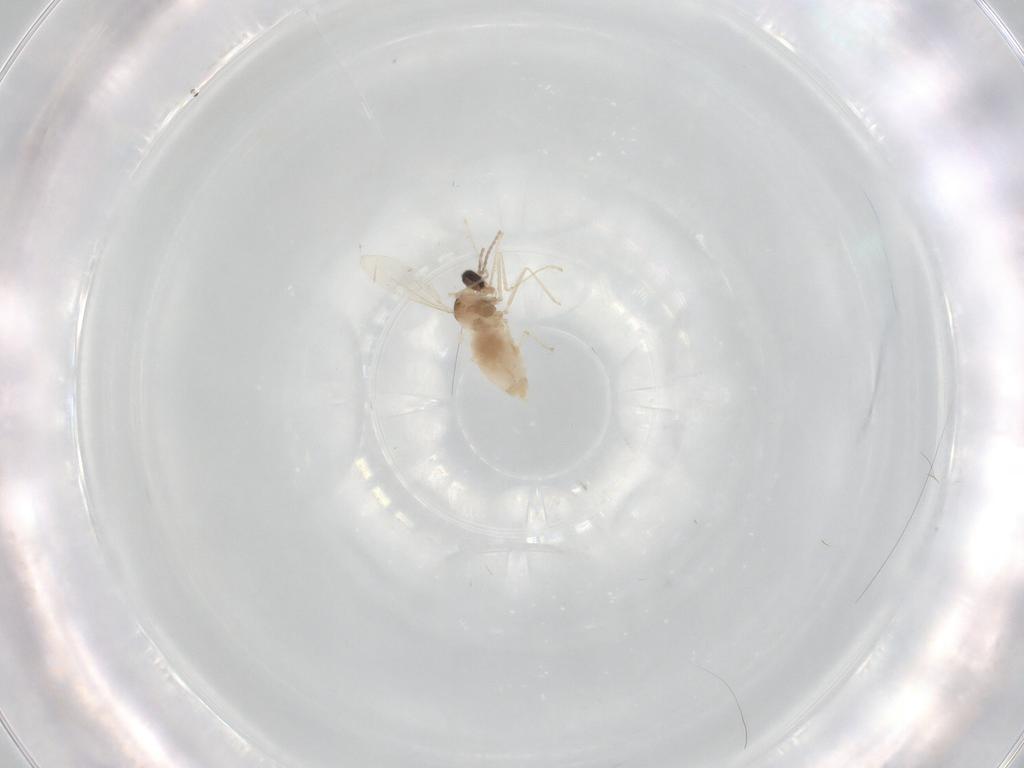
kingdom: Animalia
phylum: Arthropoda
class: Insecta
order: Diptera
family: Cecidomyiidae
